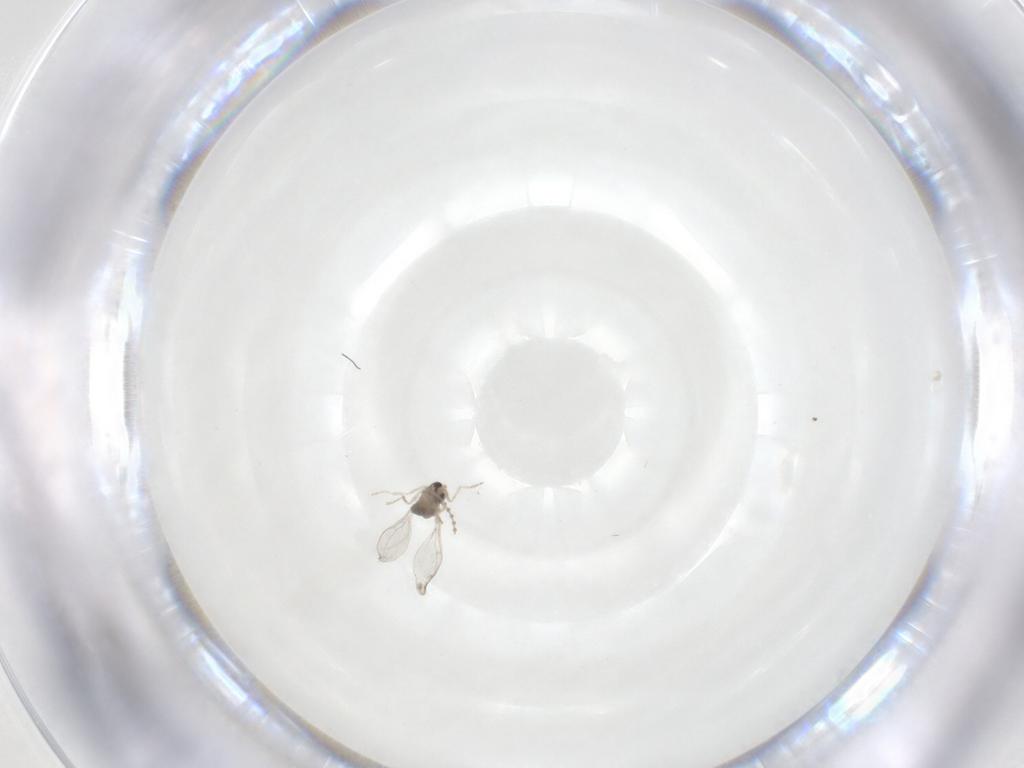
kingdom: Animalia
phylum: Arthropoda
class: Insecta
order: Diptera
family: Cecidomyiidae
